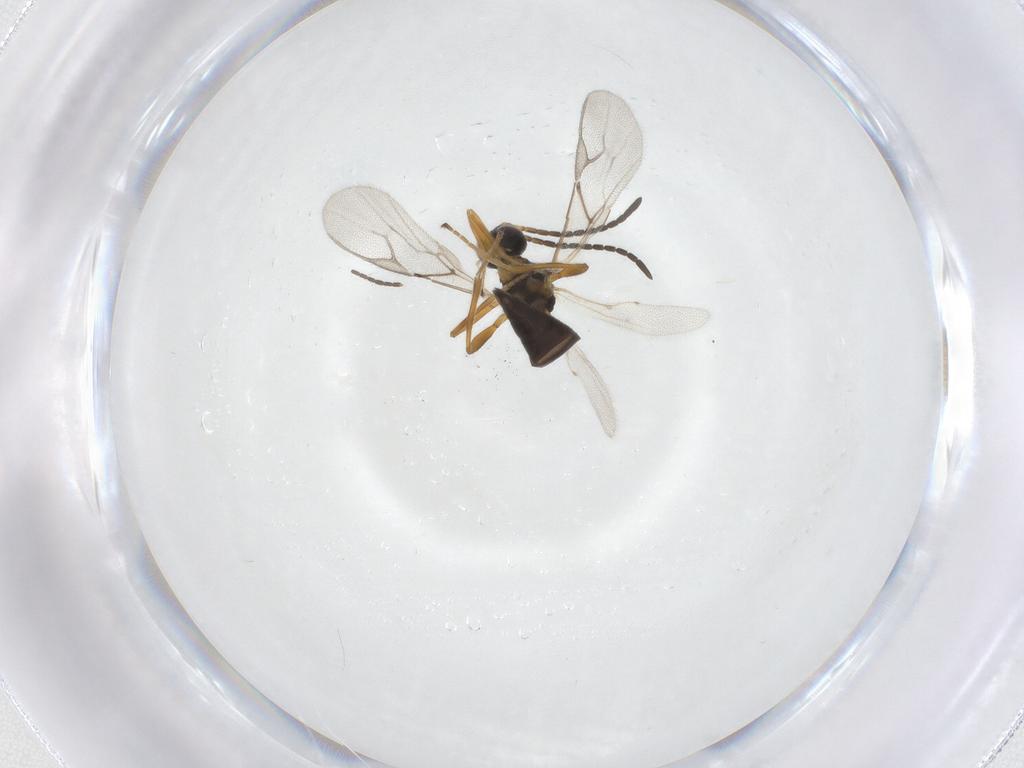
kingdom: Animalia
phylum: Arthropoda
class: Insecta
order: Hymenoptera
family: Braconidae
